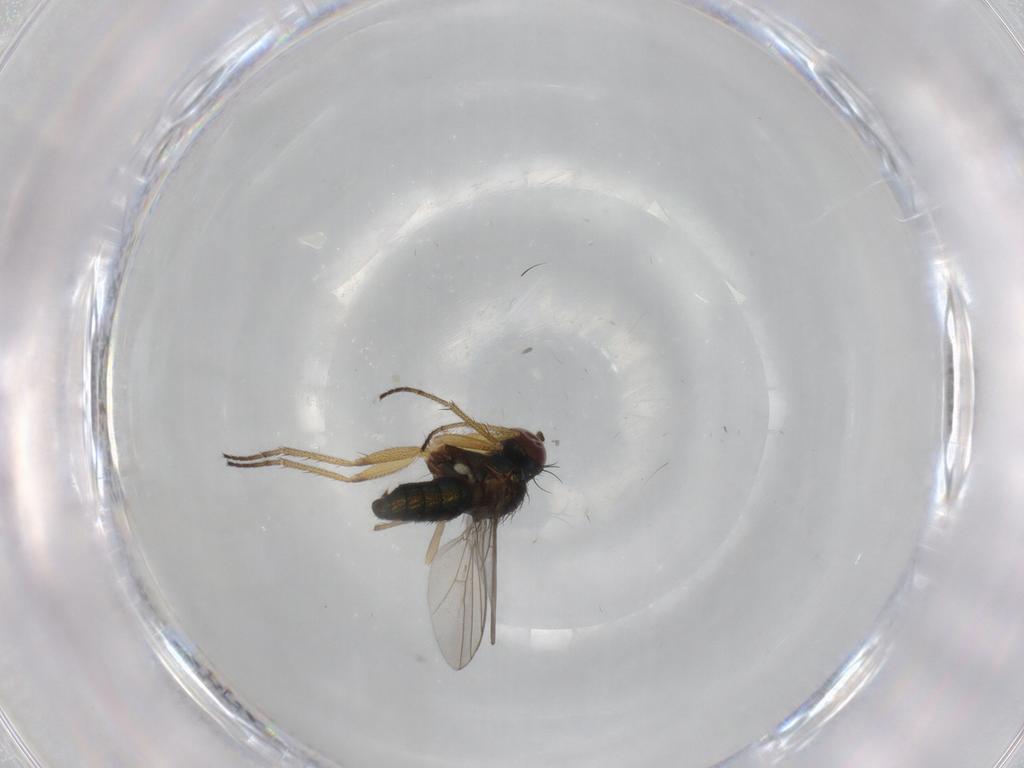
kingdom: Animalia
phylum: Arthropoda
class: Insecta
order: Diptera
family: Chironomidae
